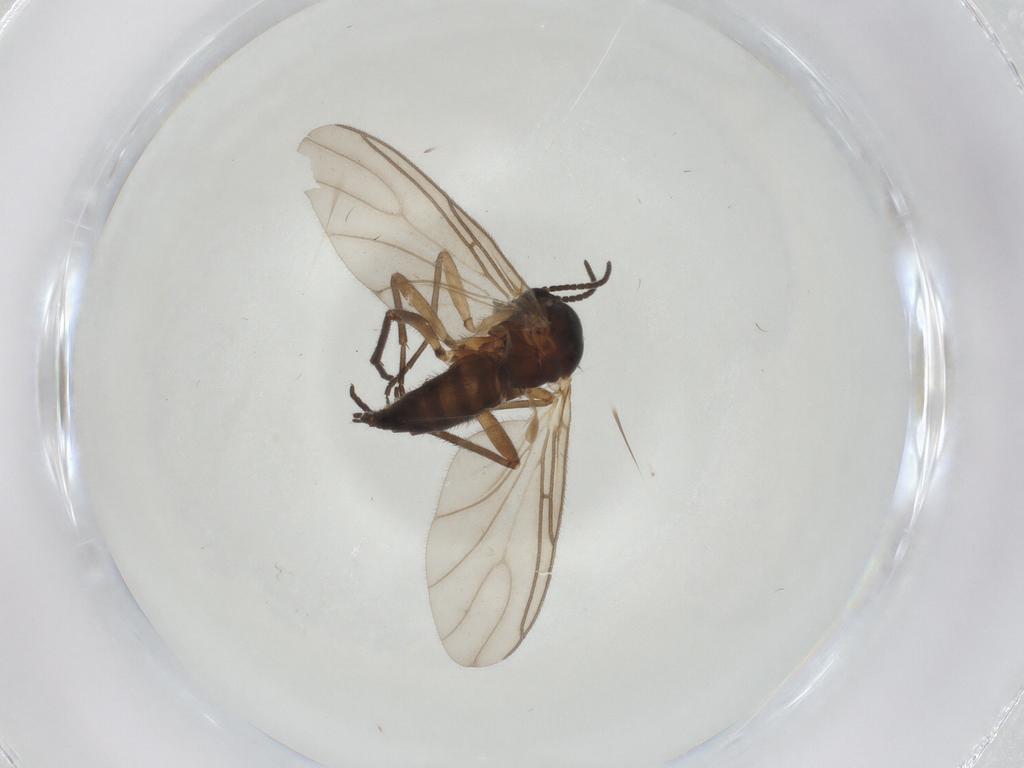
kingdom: Animalia
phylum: Arthropoda
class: Insecta
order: Diptera
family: Sciaridae
